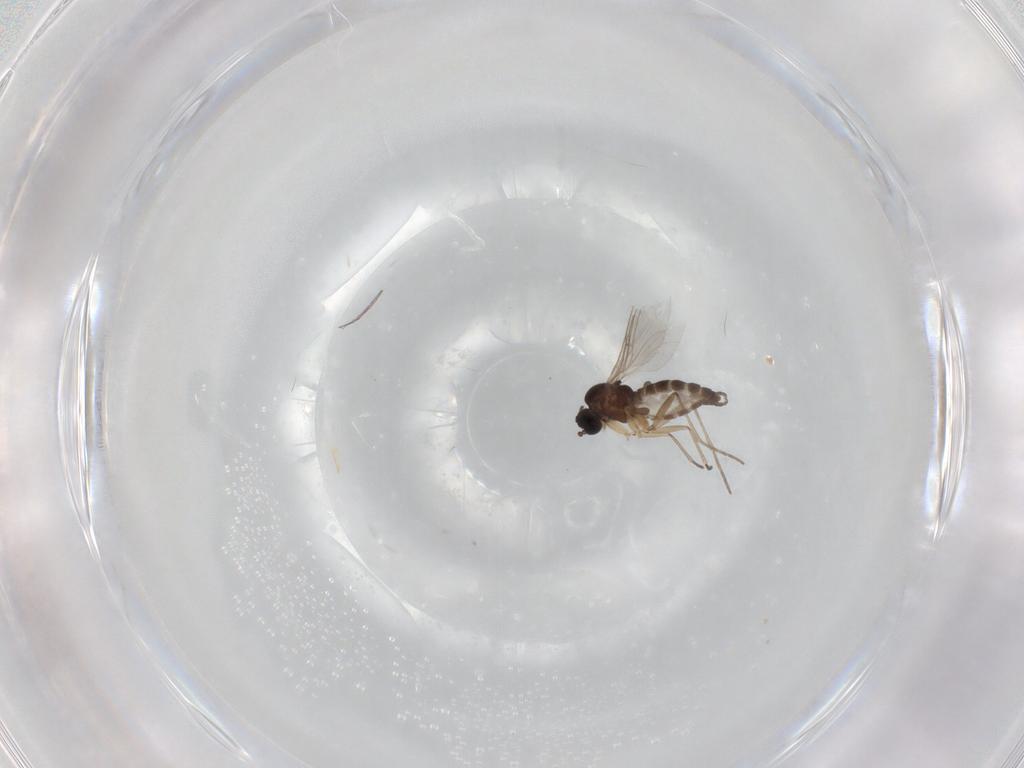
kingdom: Animalia
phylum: Arthropoda
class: Insecta
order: Diptera
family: Sciaridae
